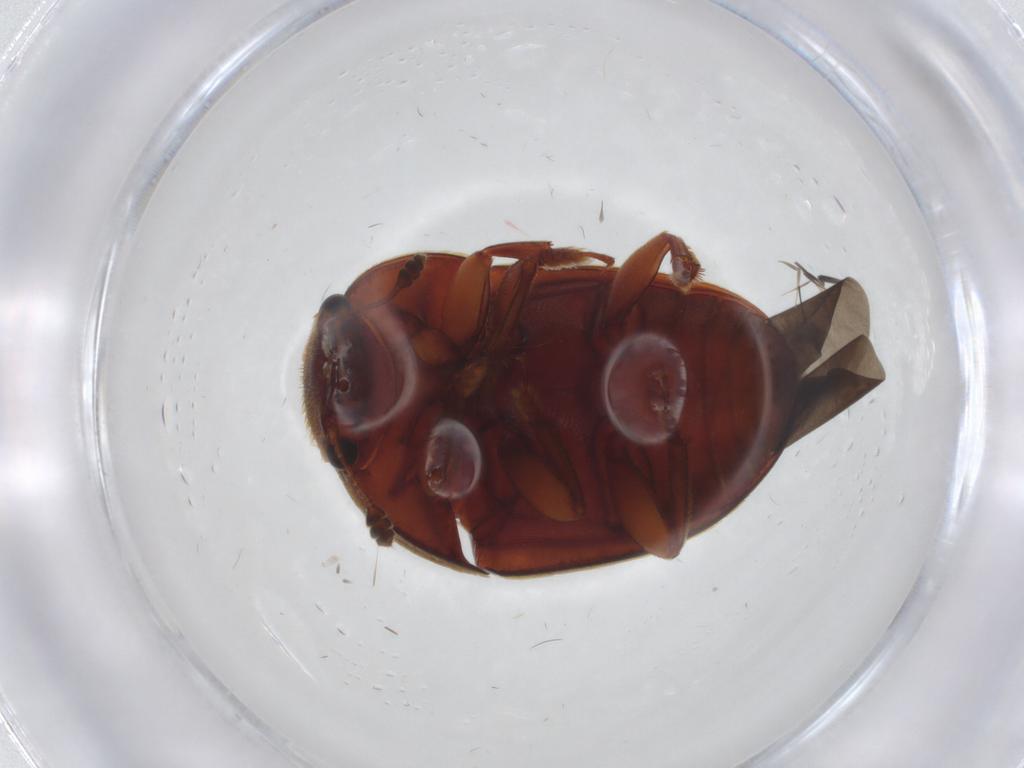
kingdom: Animalia
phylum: Arthropoda
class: Insecta
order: Coleoptera
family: Nitidulidae
